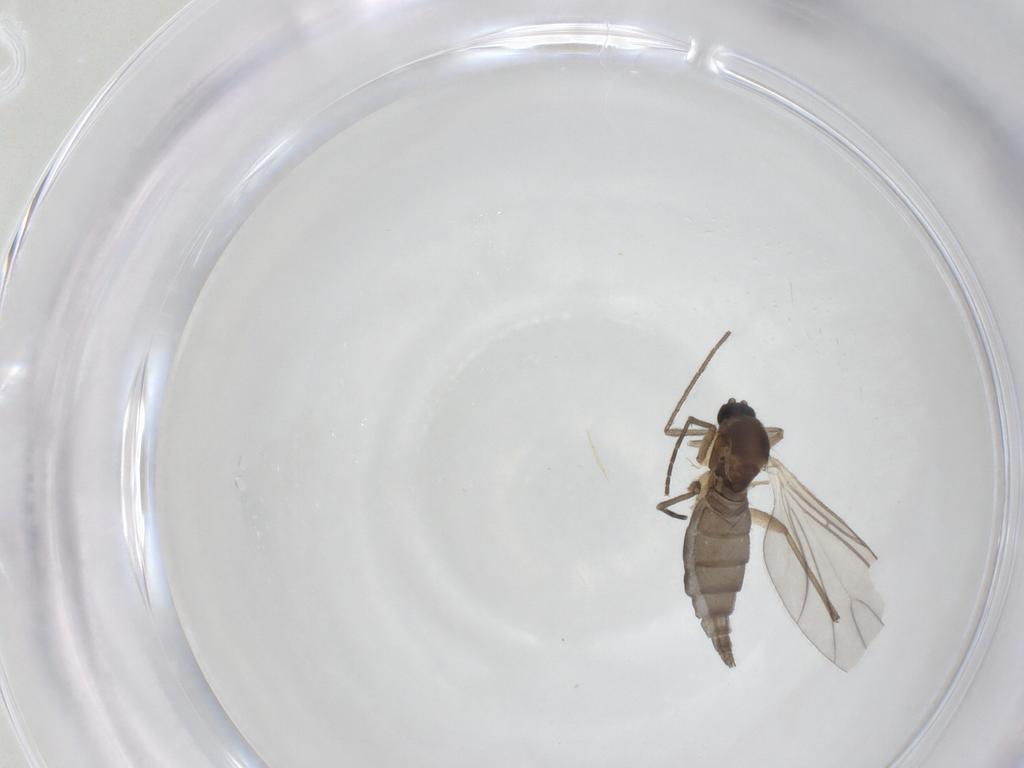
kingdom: Animalia
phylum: Arthropoda
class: Insecta
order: Diptera
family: Sciaridae
